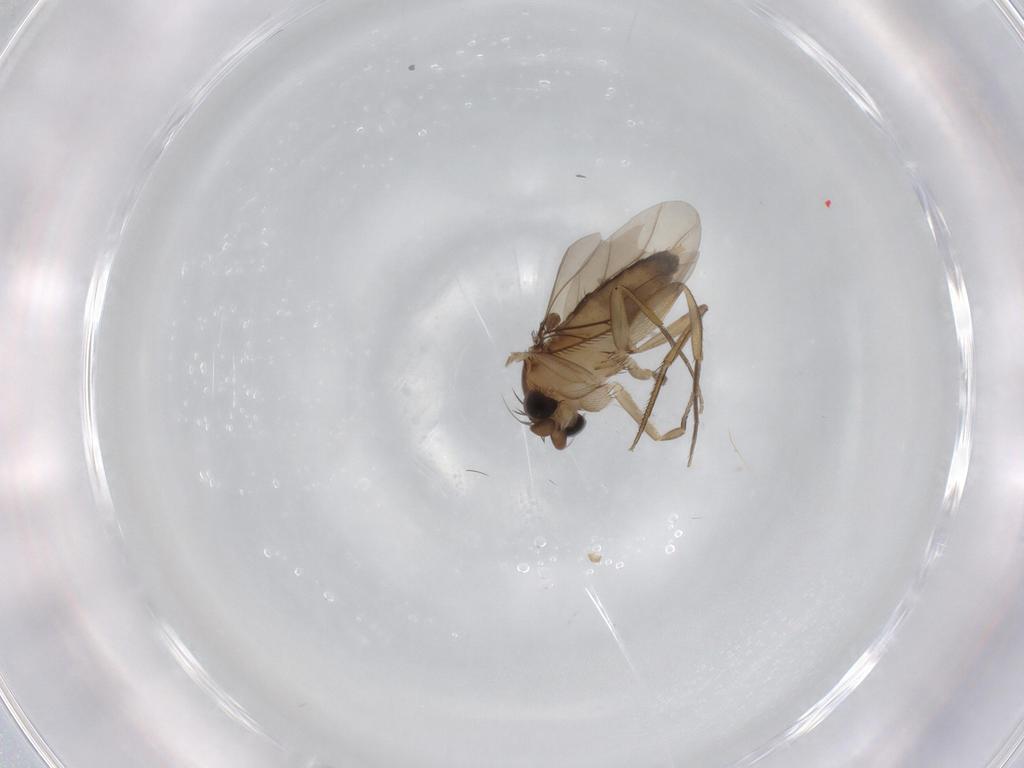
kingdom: Animalia
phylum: Arthropoda
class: Insecta
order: Diptera
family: Phoridae
